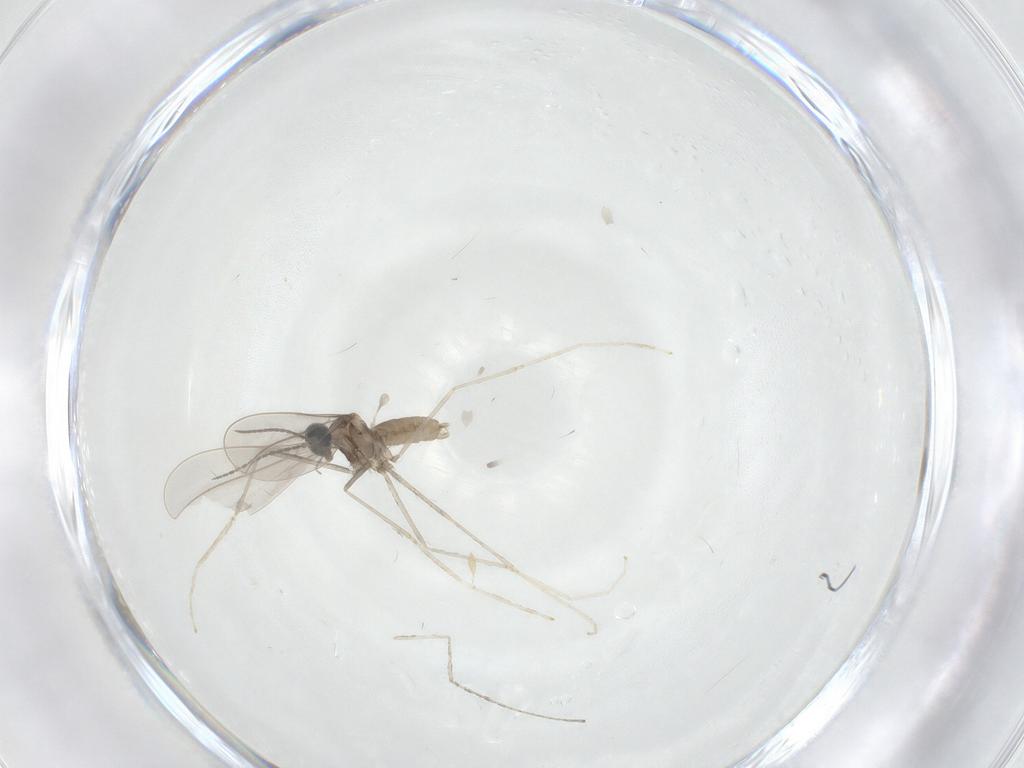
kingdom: Animalia
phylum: Arthropoda
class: Insecta
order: Diptera
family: Cecidomyiidae
